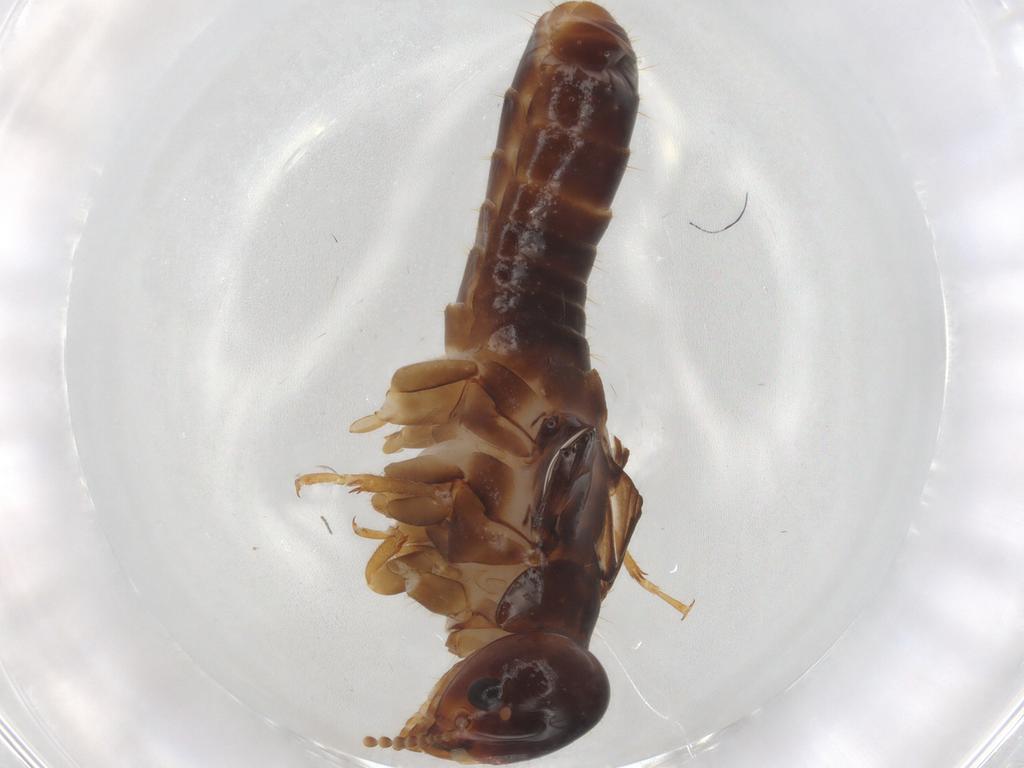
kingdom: Animalia
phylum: Arthropoda
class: Insecta
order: Blattodea
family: Kalotermitidae
